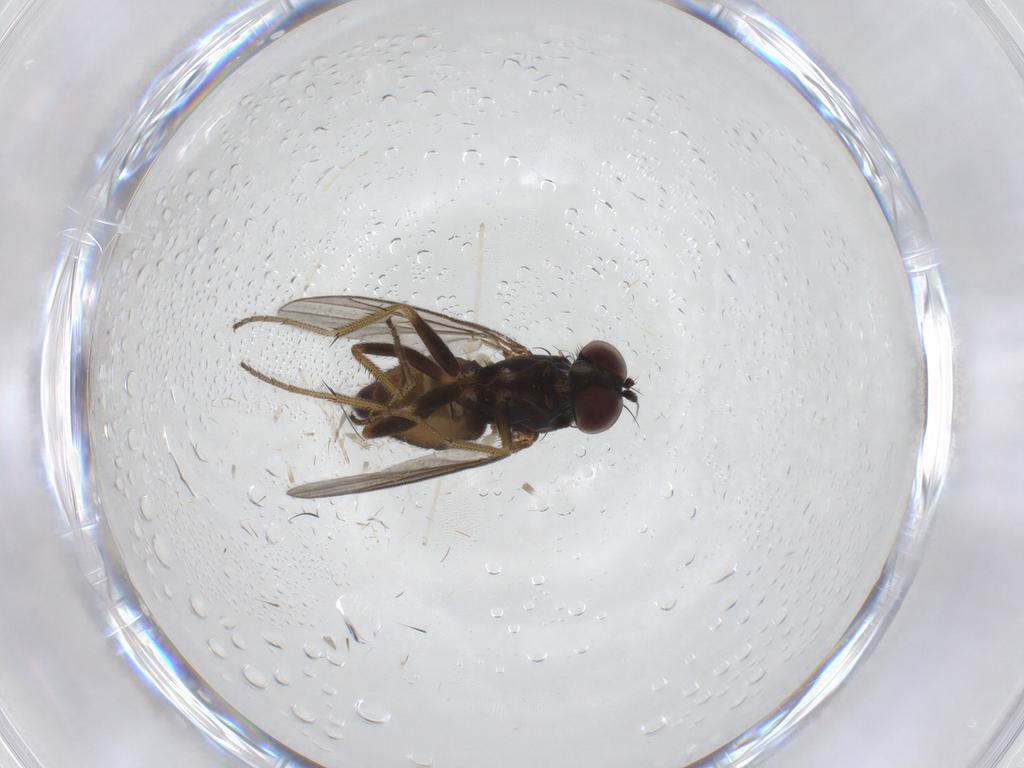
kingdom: Animalia
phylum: Arthropoda
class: Insecta
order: Diptera
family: Dolichopodidae
